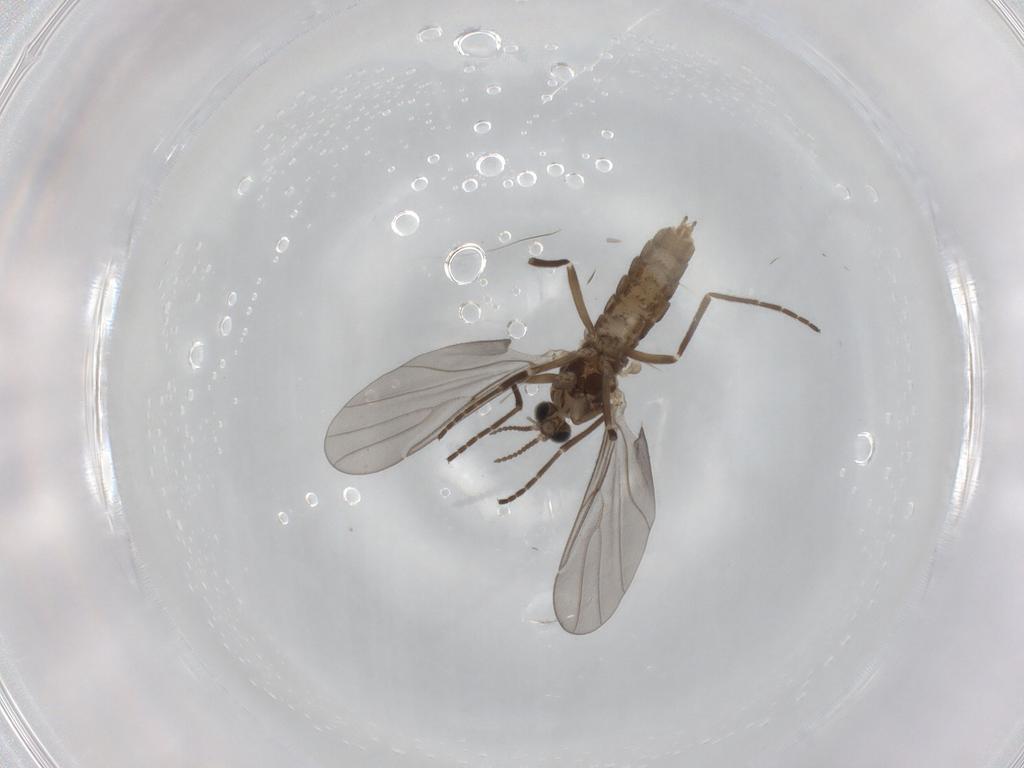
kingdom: Animalia
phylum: Arthropoda
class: Insecta
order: Diptera
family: Cecidomyiidae
